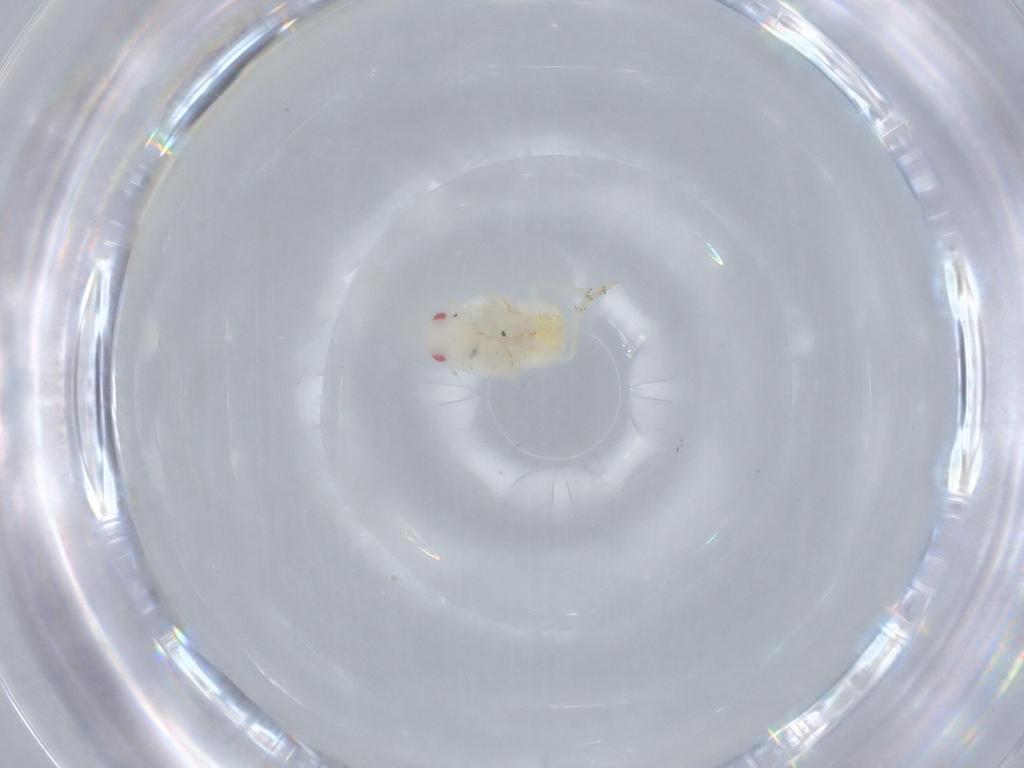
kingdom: Animalia
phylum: Arthropoda
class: Insecta
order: Hemiptera
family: Flatidae
